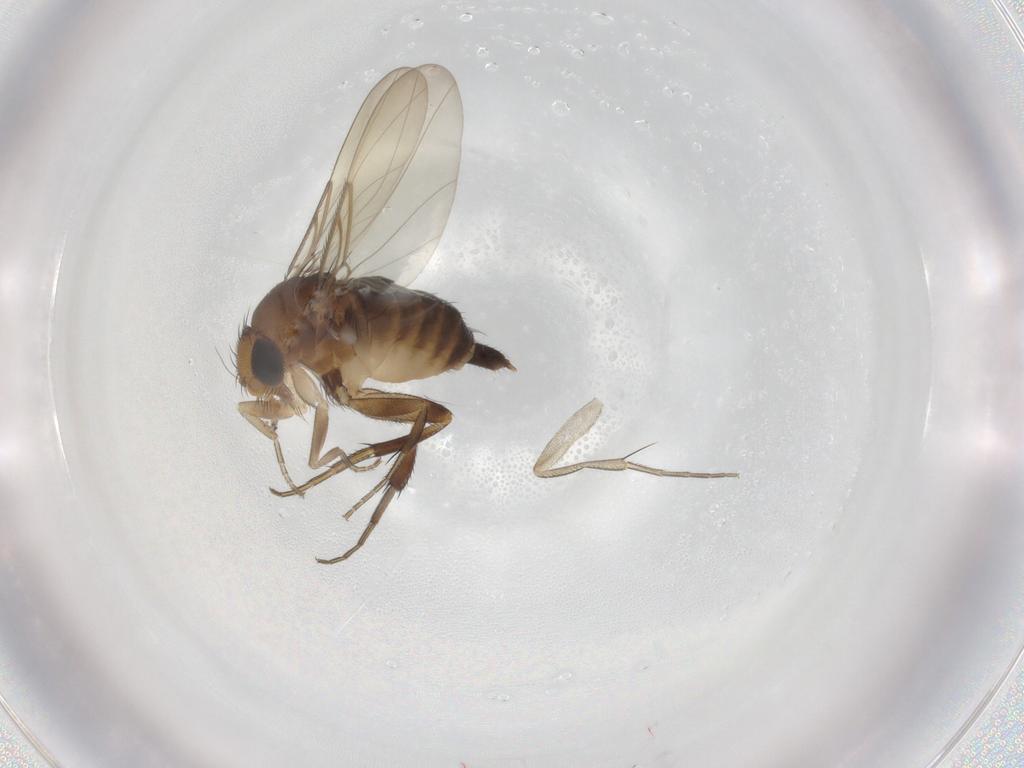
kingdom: Animalia
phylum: Arthropoda
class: Insecta
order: Diptera
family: Phoridae
